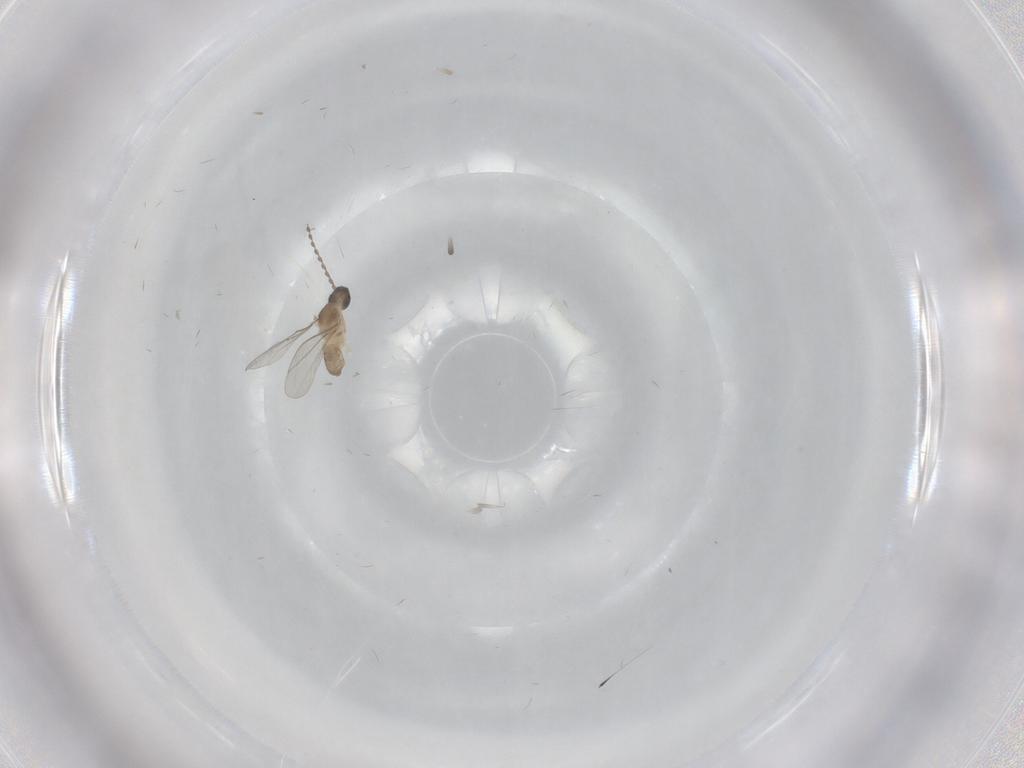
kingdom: Animalia
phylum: Arthropoda
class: Insecta
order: Diptera
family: Cecidomyiidae
